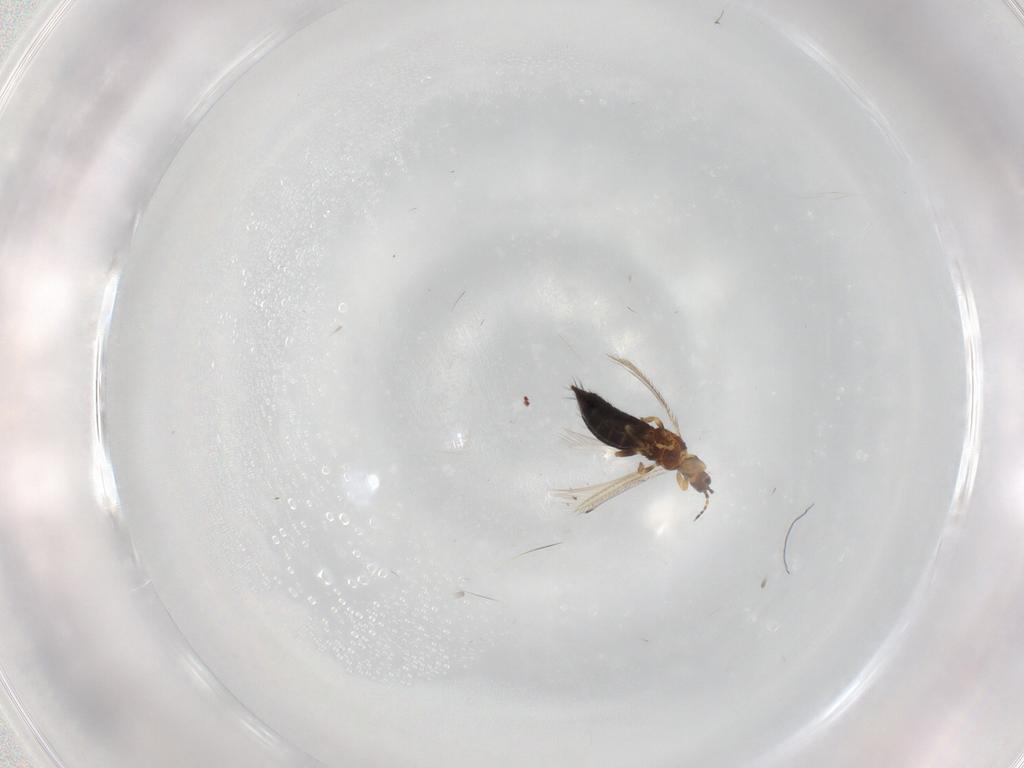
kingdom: Animalia
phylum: Arthropoda
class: Insecta
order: Thysanoptera
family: Thripidae
